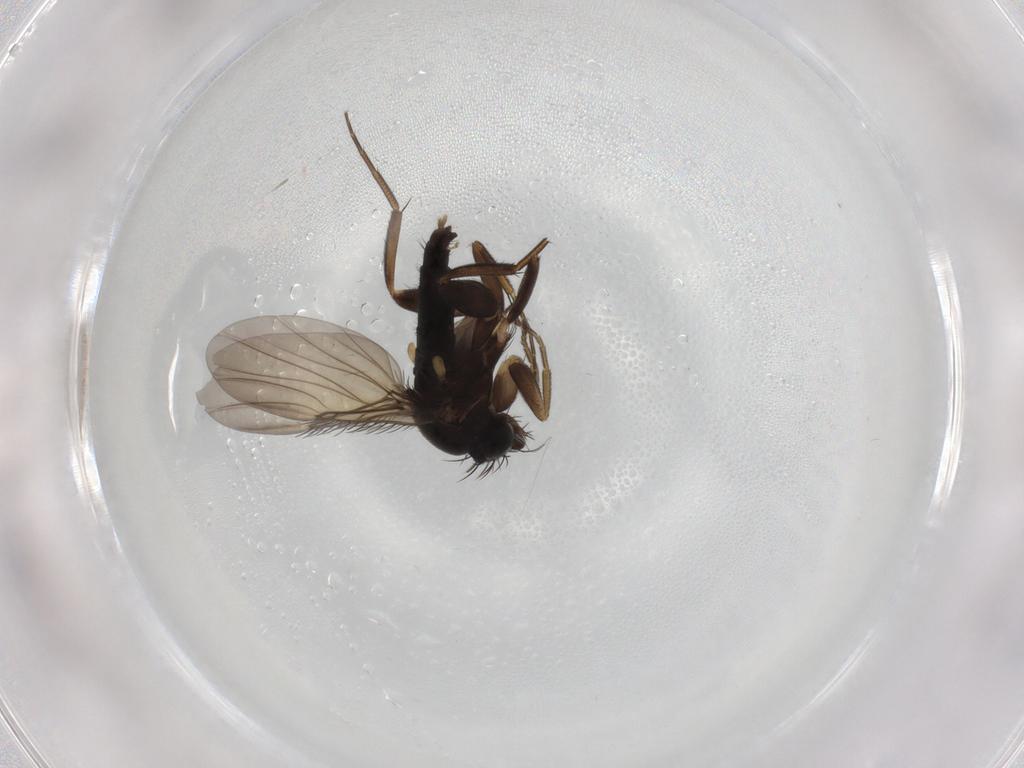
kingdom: Animalia
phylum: Arthropoda
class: Insecta
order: Diptera
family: Phoridae
